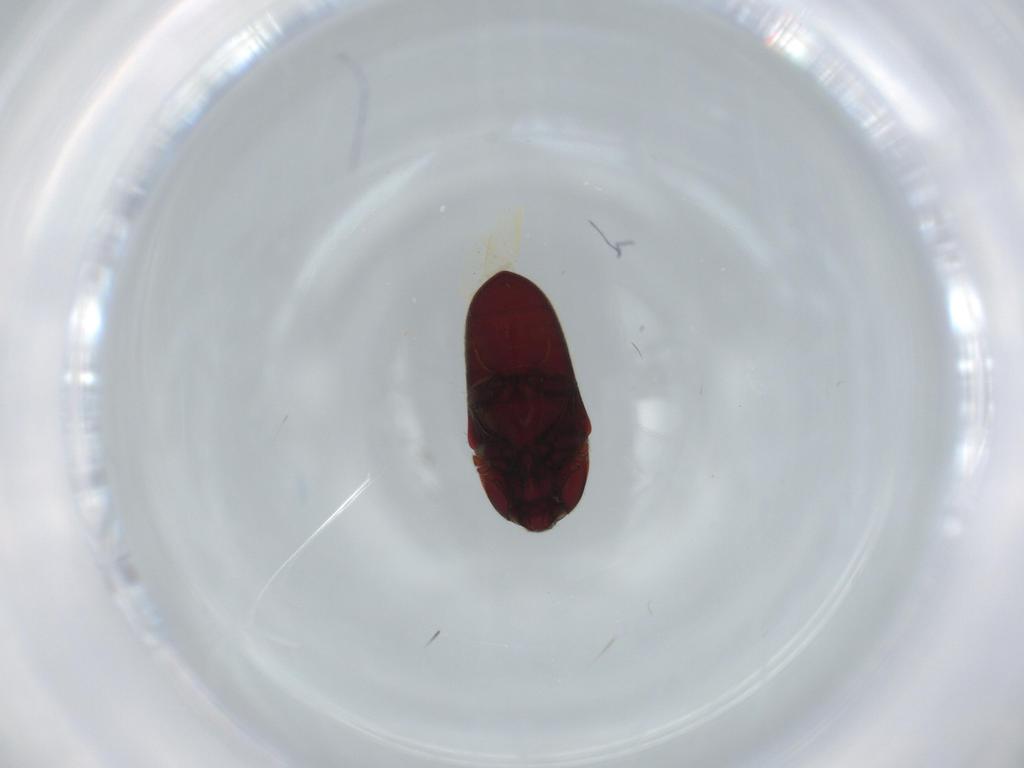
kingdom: Animalia
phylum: Arthropoda
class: Insecta
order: Coleoptera
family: Throscidae
